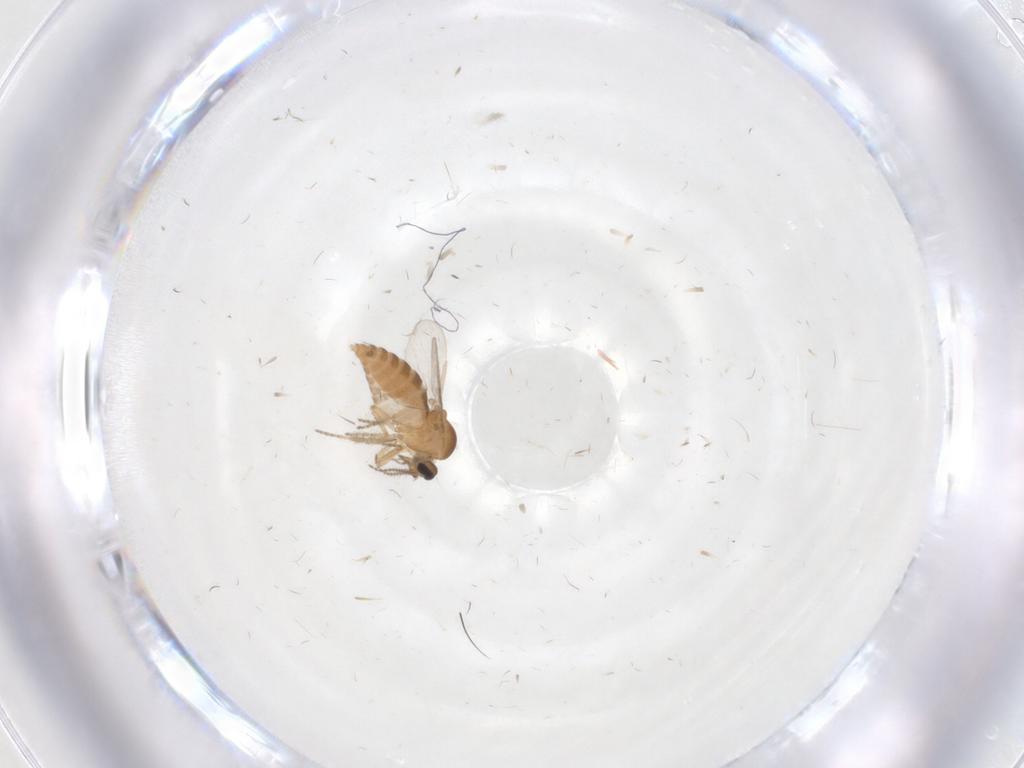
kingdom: Animalia
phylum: Arthropoda
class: Insecta
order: Diptera
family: Ceratopogonidae
